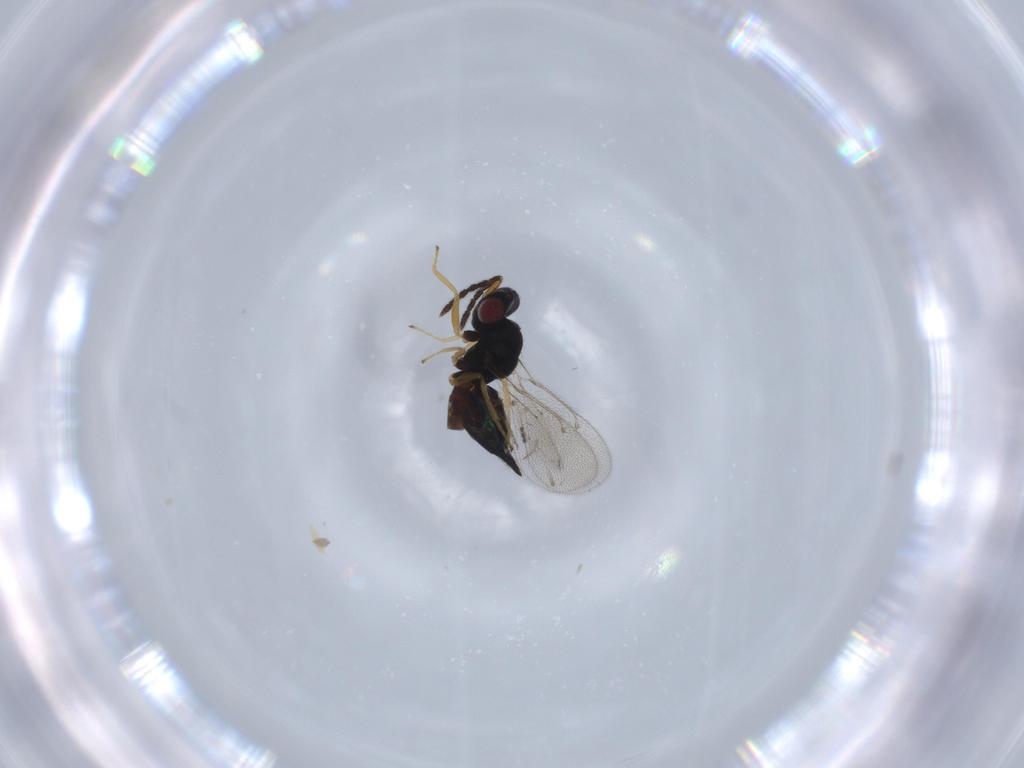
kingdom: Animalia
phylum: Arthropoda
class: Insecta
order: Hymenoptera
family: Eulophidae
